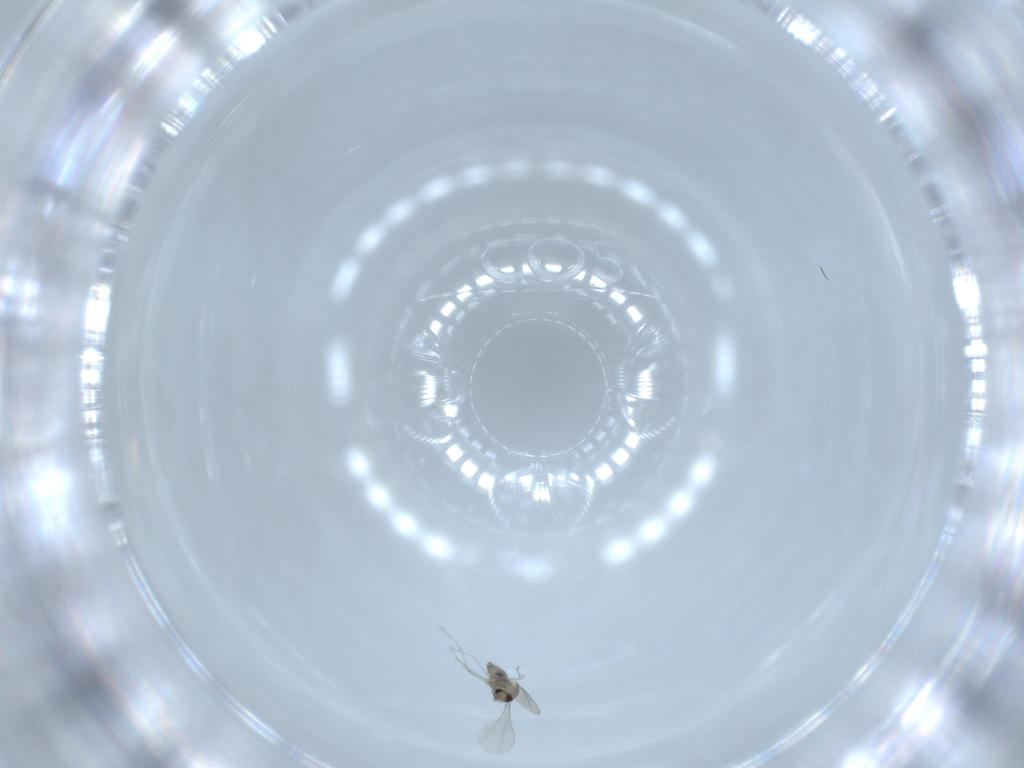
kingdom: Animalia
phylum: Arthropoda
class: Insecta
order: Diptera
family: Cecidomyiidae
